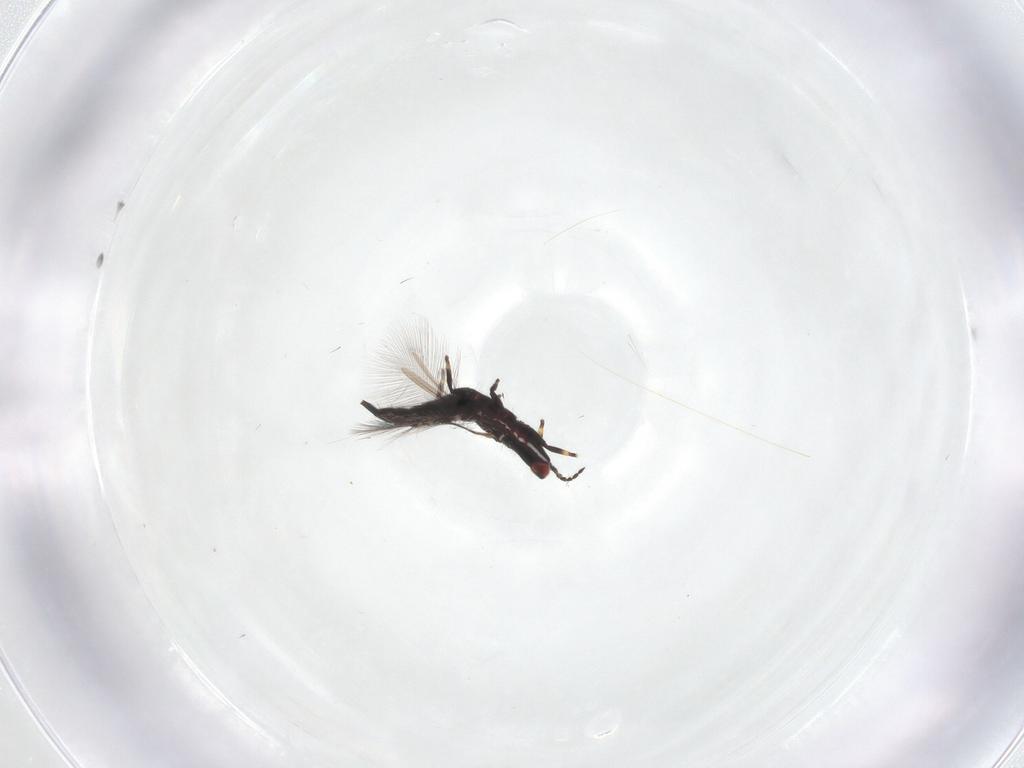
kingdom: Animalia
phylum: Arthropoda
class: Insecta
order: Thysanoptera
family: Phlaeothripidae
